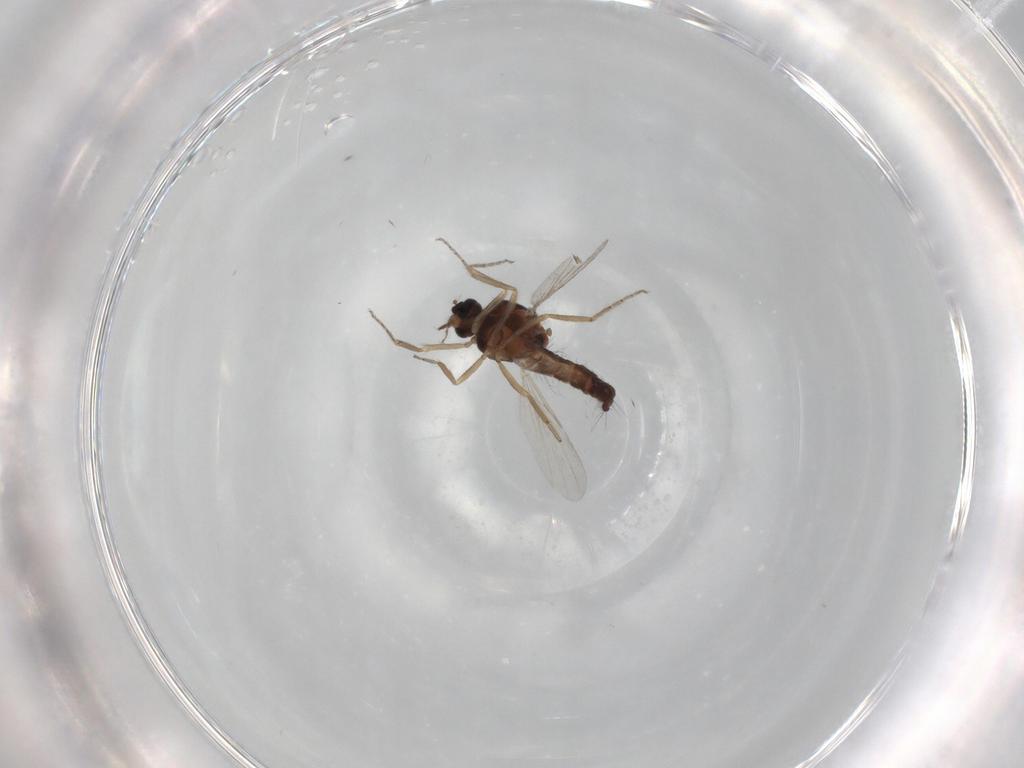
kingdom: Animalia
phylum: Arthropoda
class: Insecta
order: Diptera
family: Ceratopogonidae
